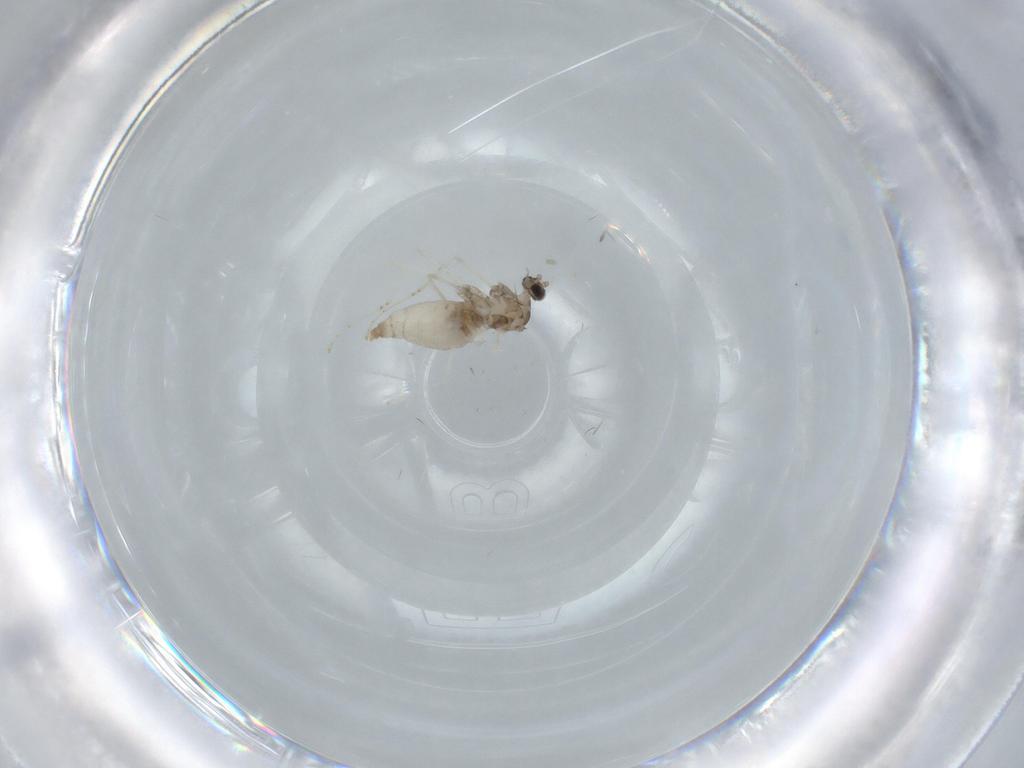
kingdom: Animalia
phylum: Arthropoda
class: Insecta
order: Diptera
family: Cecidomyiidae
